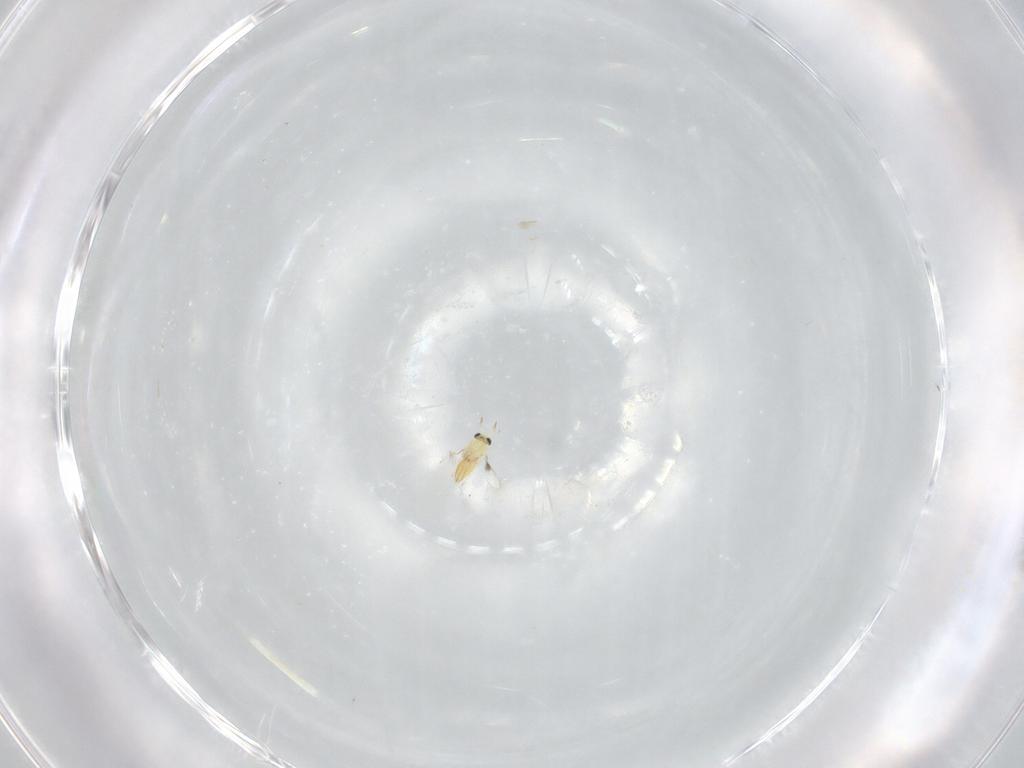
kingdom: Animalia
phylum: Arthropoda
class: Insecta
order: Hymenoptera
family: Trichogrammatidae
